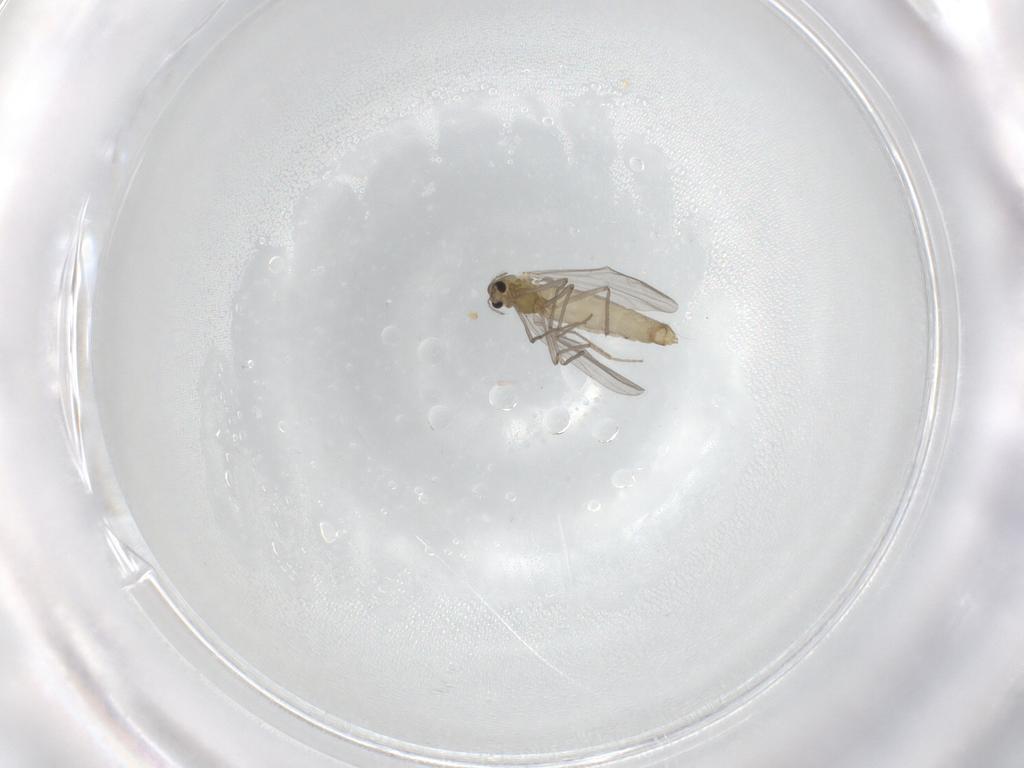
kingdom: Animalia
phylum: Arthropoda
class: Insecta
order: Diptera
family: Chironomidae
